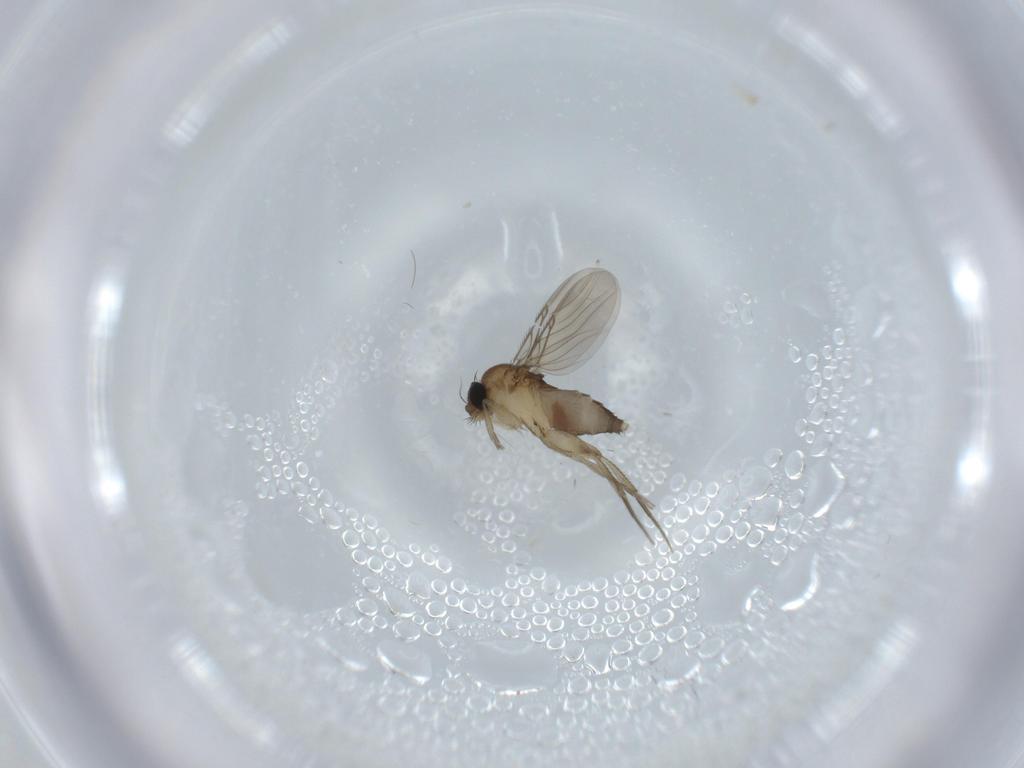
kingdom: Animalia
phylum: Arthropoda
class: Insecta
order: Diptera
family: Phoridae
